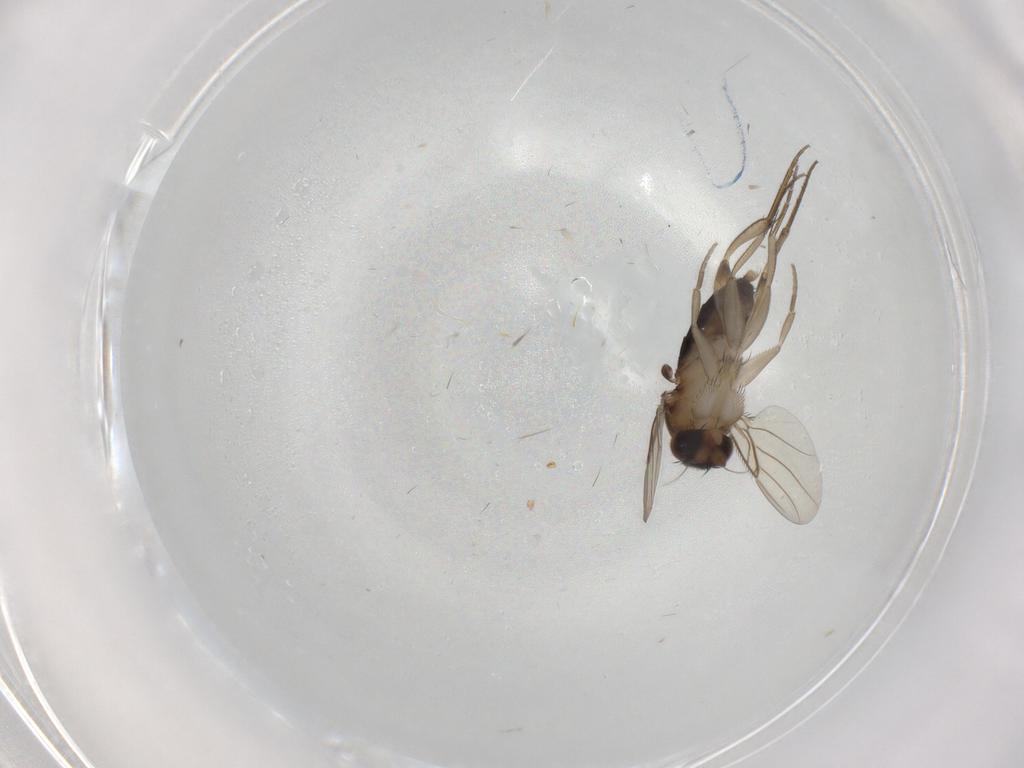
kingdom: Animalia
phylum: Arthropoda
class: Insecta
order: Diptera
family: Phoridae
